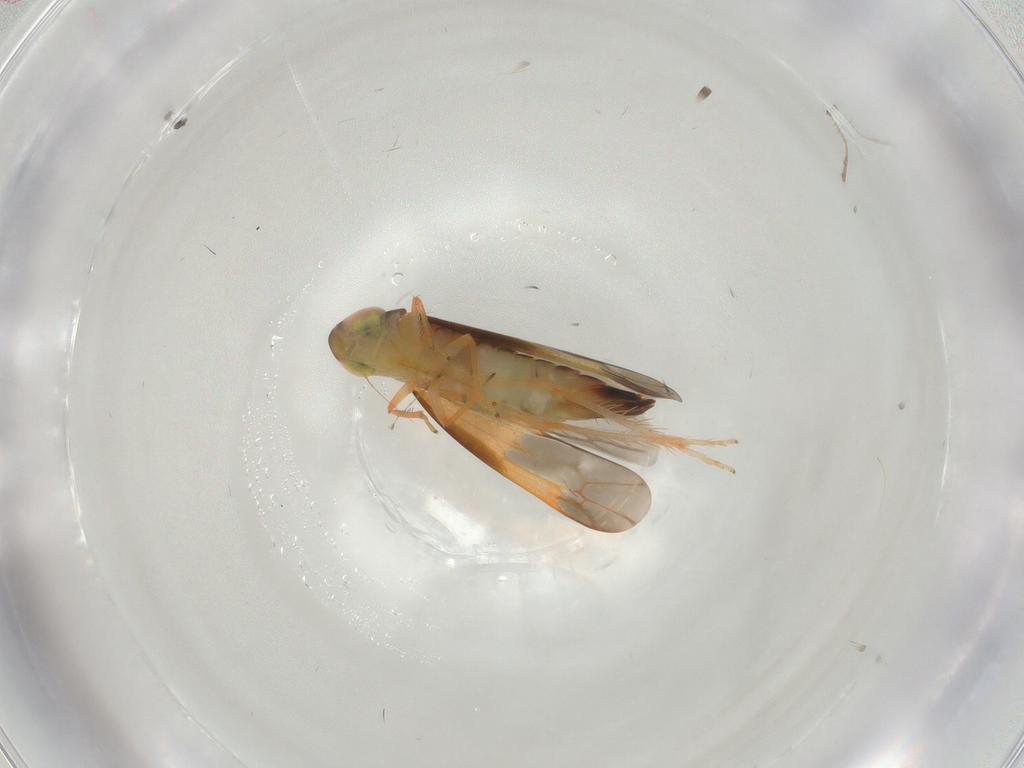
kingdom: Animalia
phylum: Arthropoda
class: Insecta
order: Hemiptera
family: Cicadellidae
